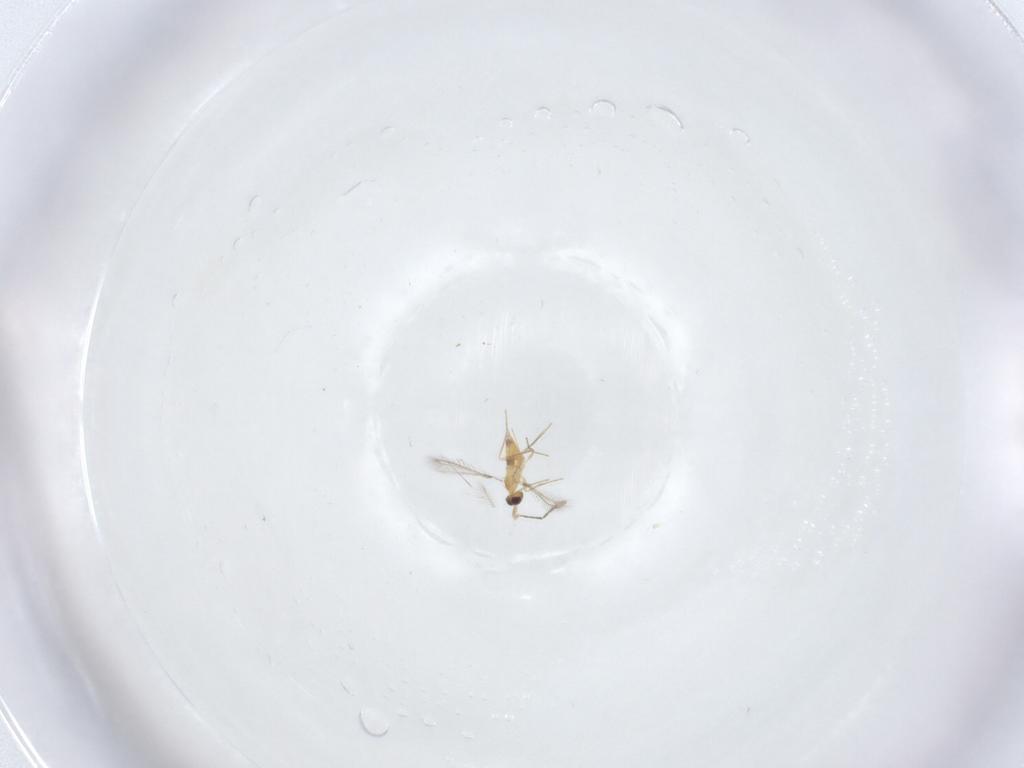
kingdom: Animalia
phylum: Arthropoda
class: Insecta
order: Hymenoptera
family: Mymaridae
